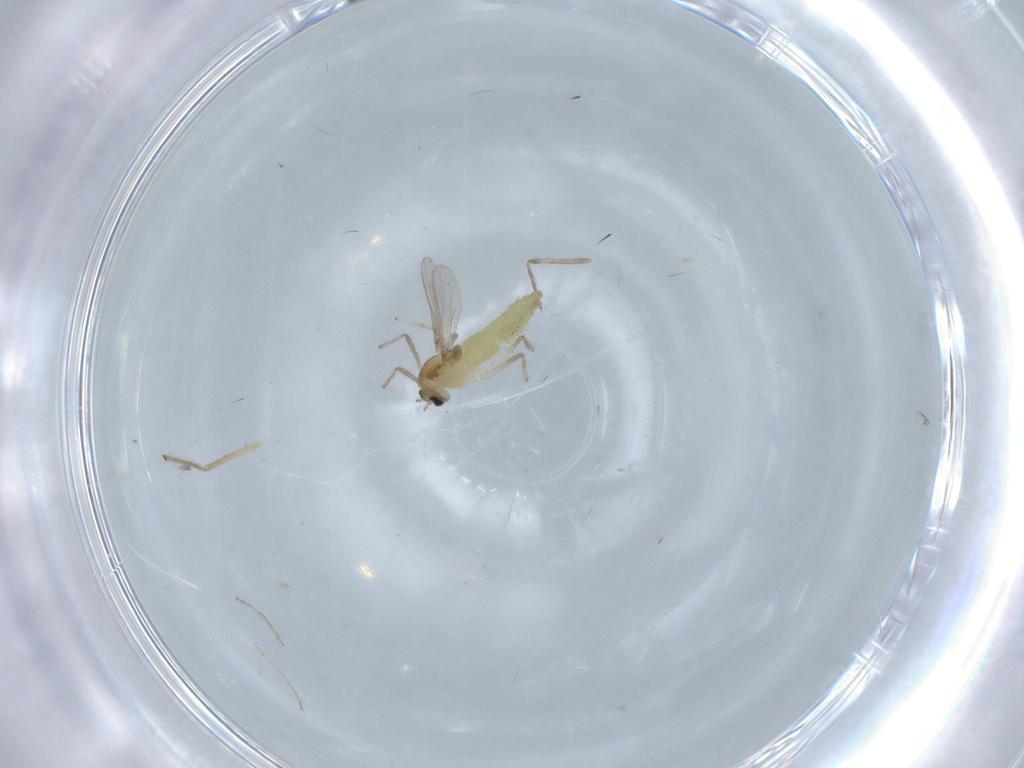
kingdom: Animalia
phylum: Arthropoda
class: Insecta
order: Diptera
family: Chironomidae
